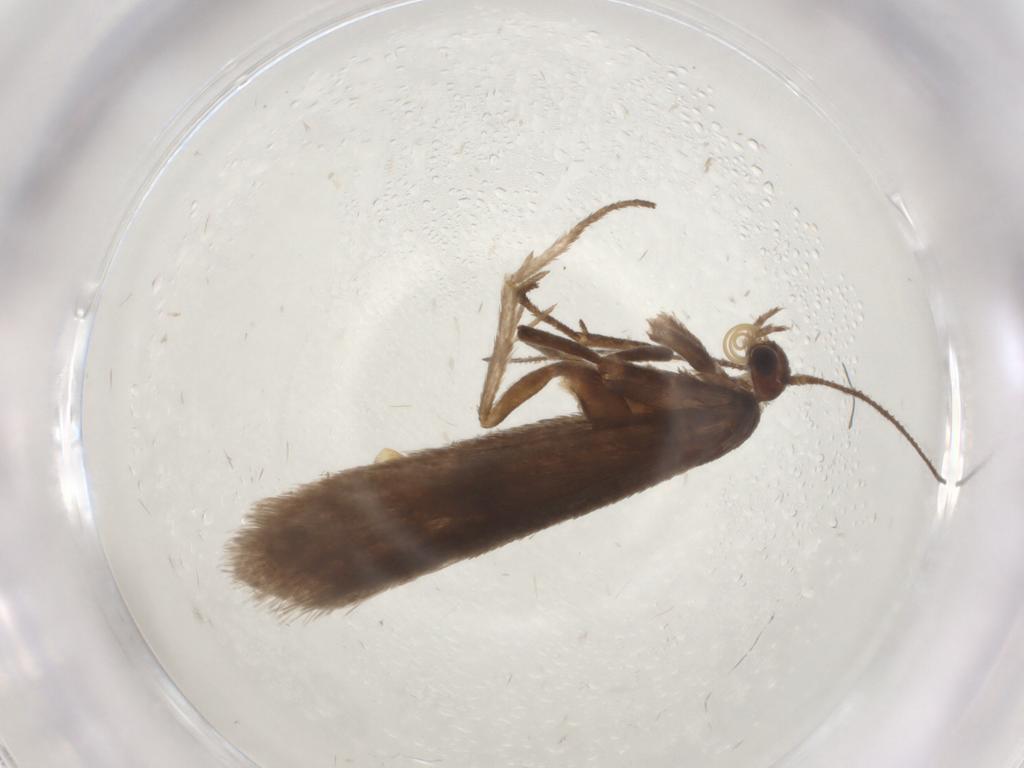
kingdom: Animalia
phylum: Arthropoda
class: Insecta
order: Lepidoptera
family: Limacodidae
